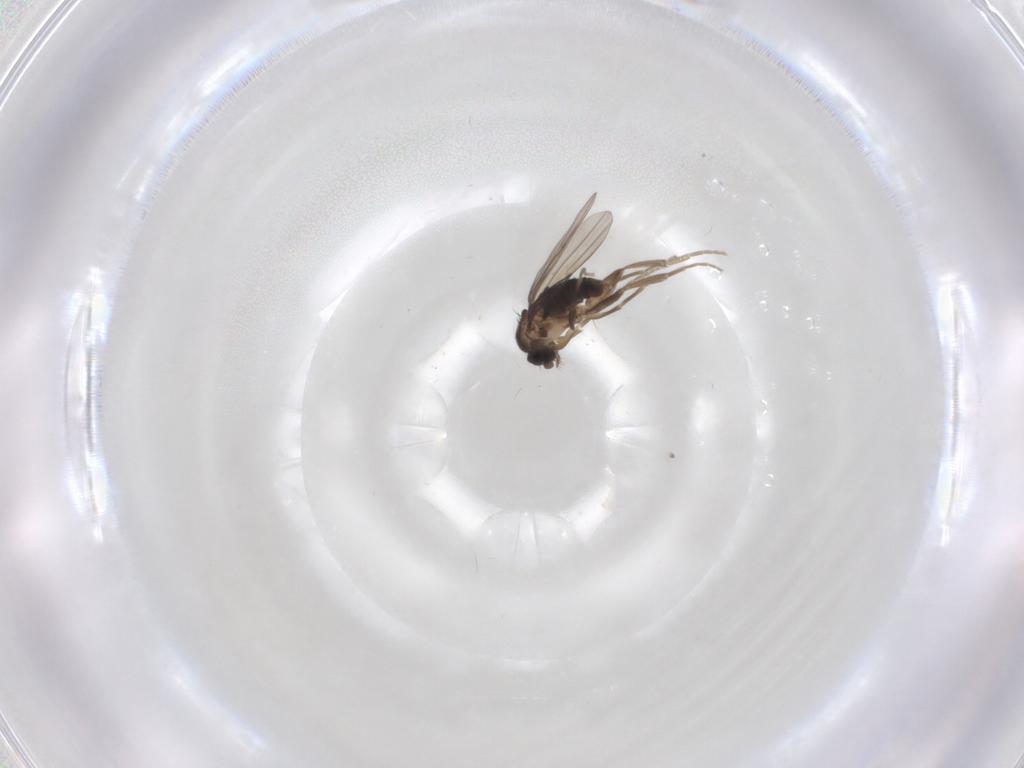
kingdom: Animalia
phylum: Arthropoda
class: Insecta
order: Diptera
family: Phoridae
